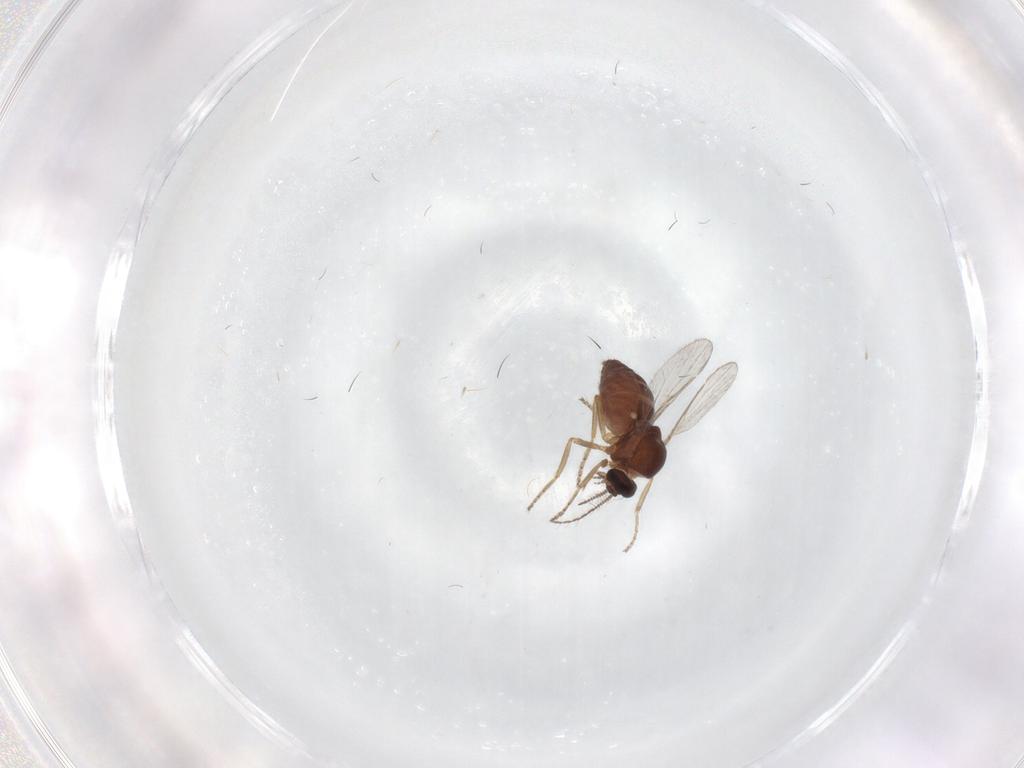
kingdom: Animalia
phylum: Arthropoda
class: Insecta
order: Diptera
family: Ceratopogonidae
